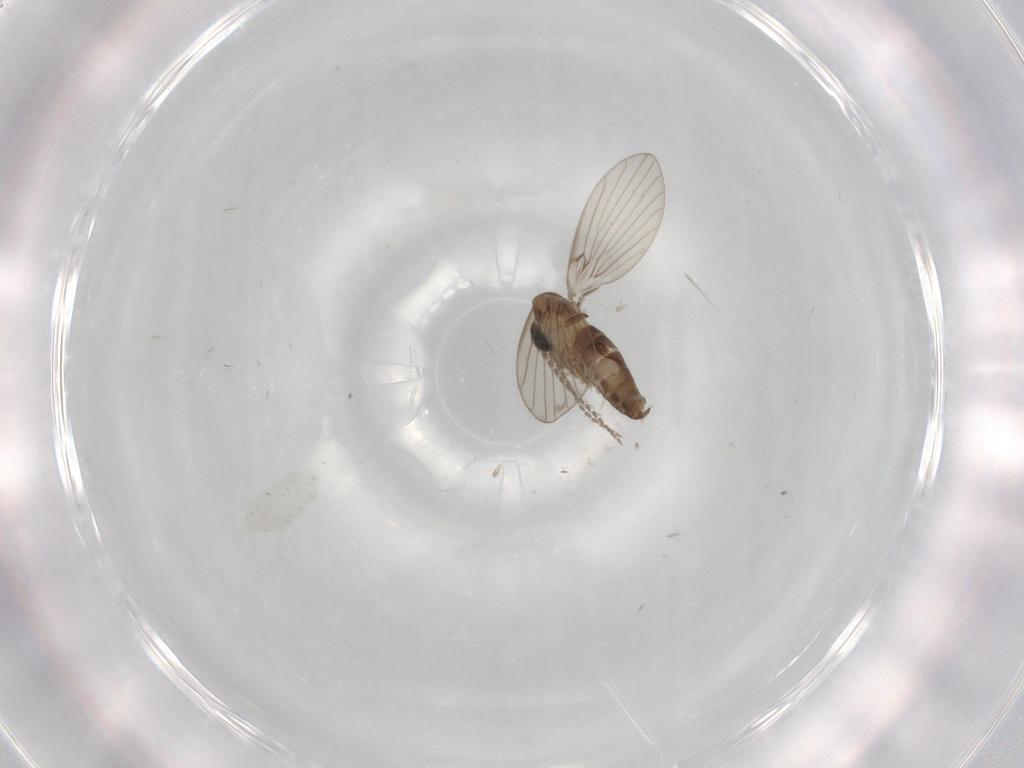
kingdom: Animalia
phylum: Arthropoda
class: Insecta
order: Diptera
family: Psychodidae
